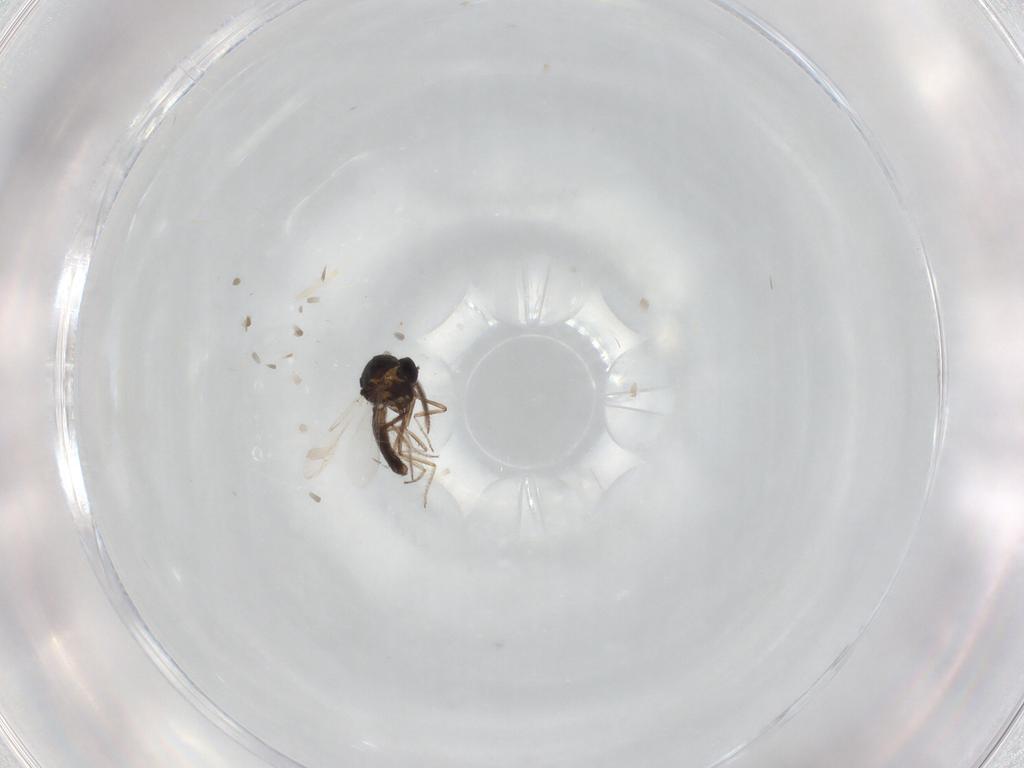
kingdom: Animalia
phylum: Arthropoda
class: Insecta
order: Diptera
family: Ceratopogonidae
